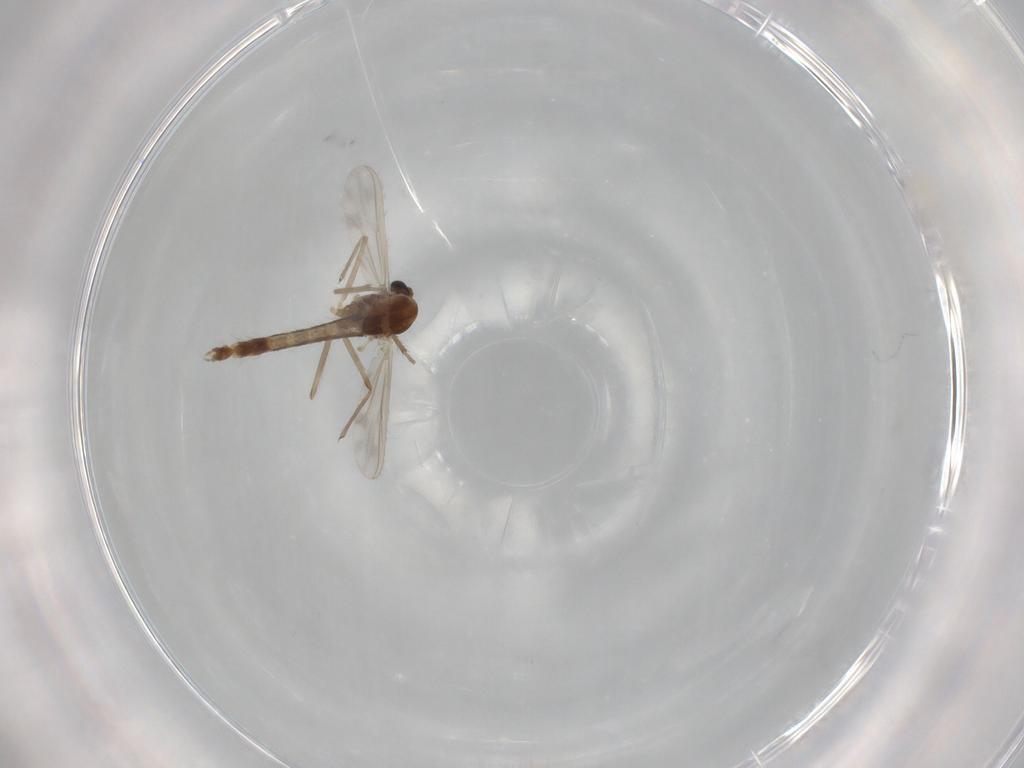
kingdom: Animalia
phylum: Arthropoda
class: Insecta
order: Diptera
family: Chironomidae
